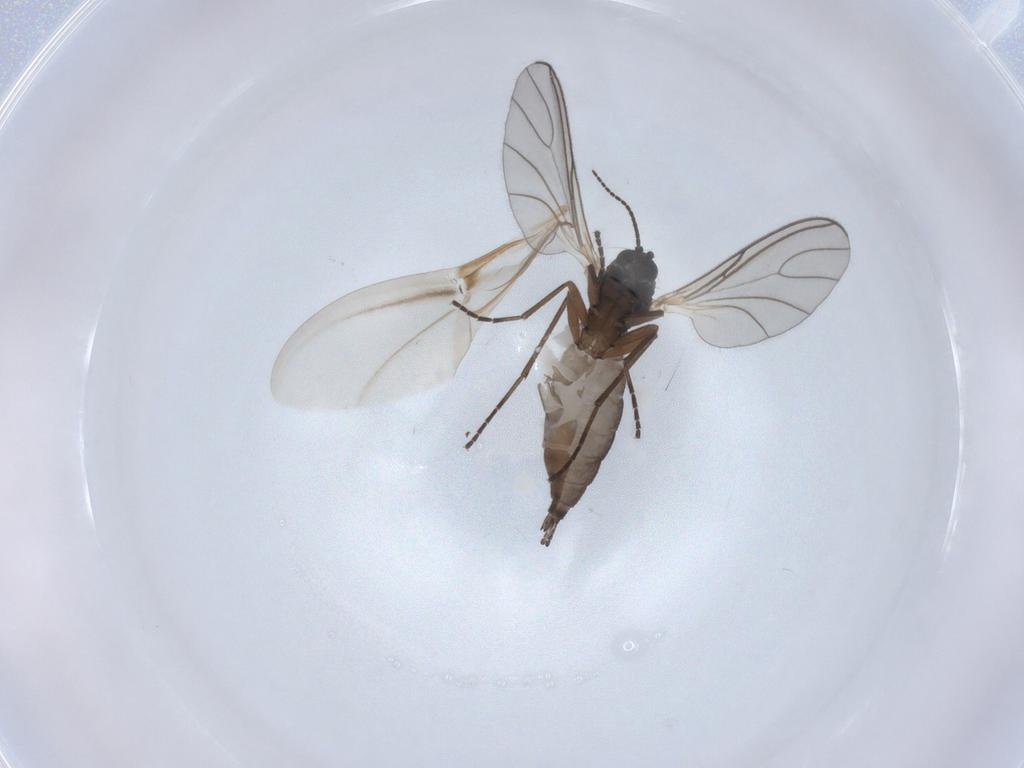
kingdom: Animalia
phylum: Arthropoda
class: Insecta
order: Diptera
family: Sciaridae
